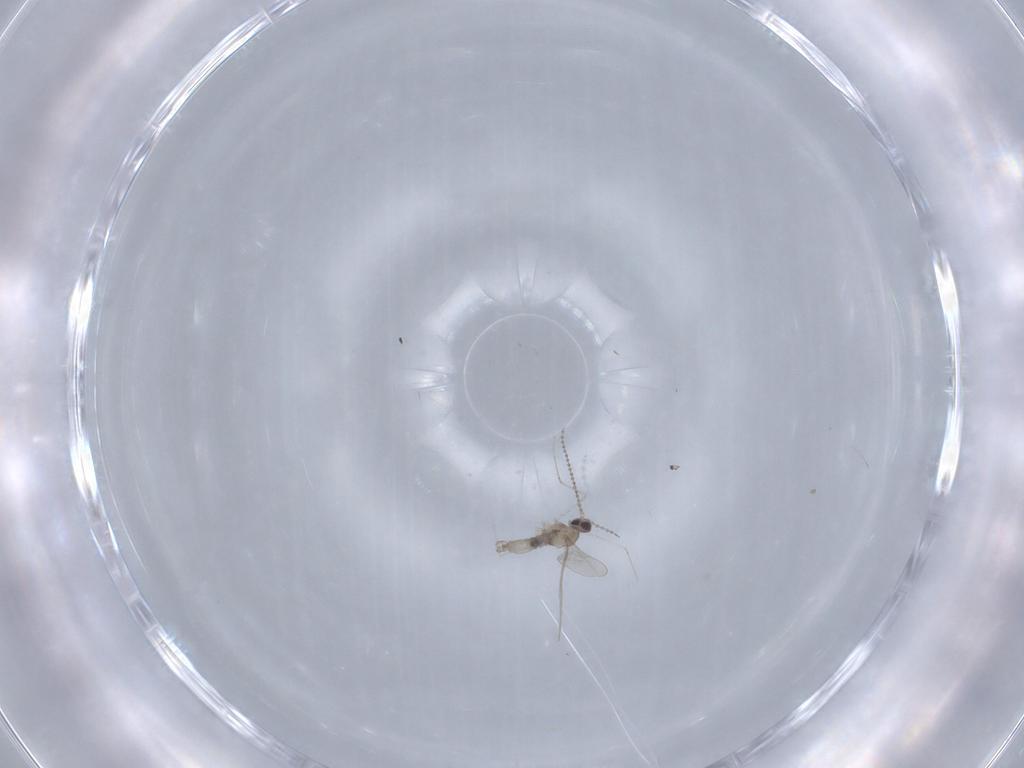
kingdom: Animalia
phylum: Arthropoda
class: Insecta
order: Diptera
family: Cecidomyiidae
